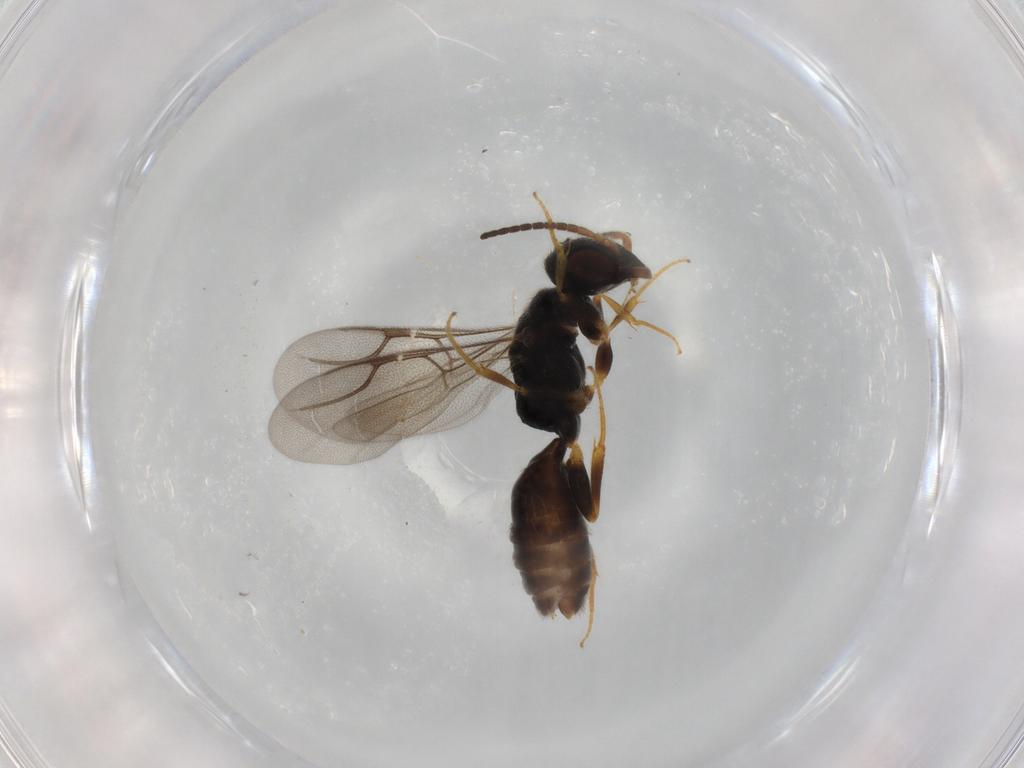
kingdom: Animalia
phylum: Arthropoda
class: Insecta
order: Hymenoptera
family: Bethylidae
